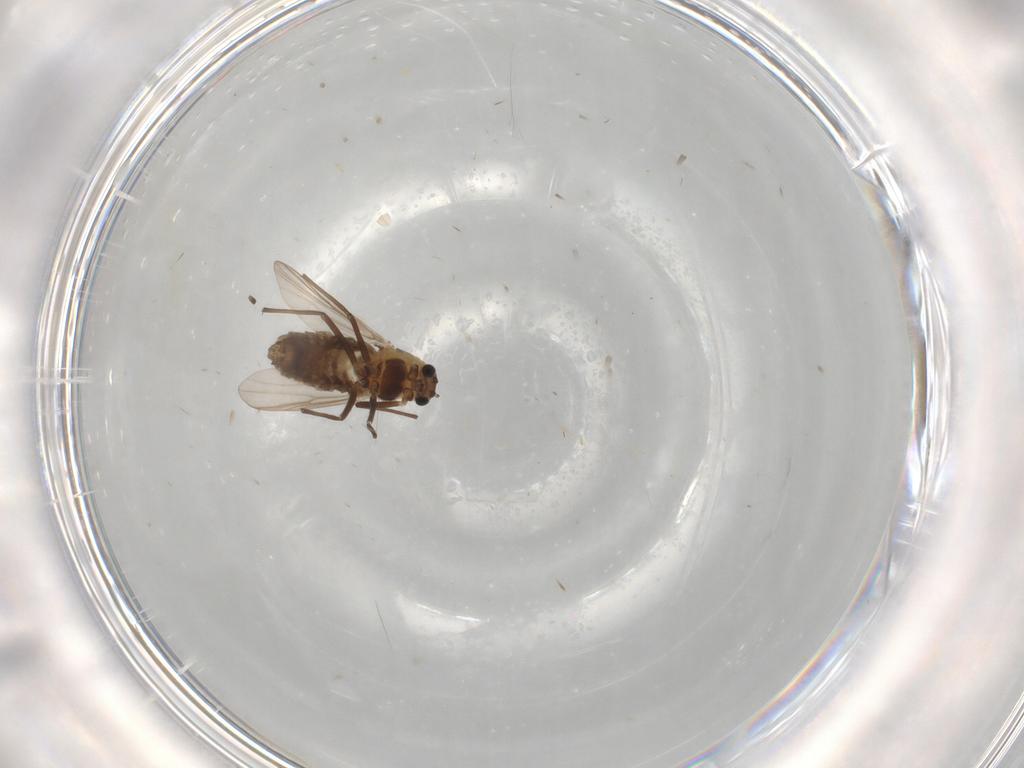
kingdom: Animalia
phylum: Arthropoda
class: Insecta
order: Diptera
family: Chironomidae
